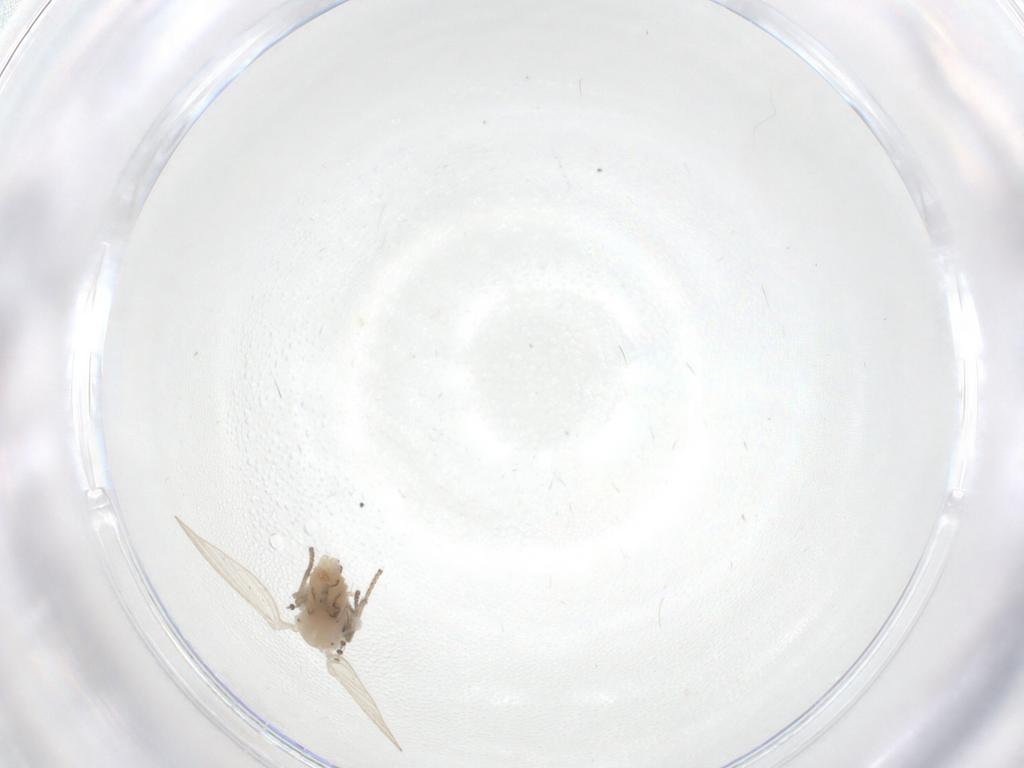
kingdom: Animalia
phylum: Arthropoda
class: Insecta
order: Diptera
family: Psychodidae
